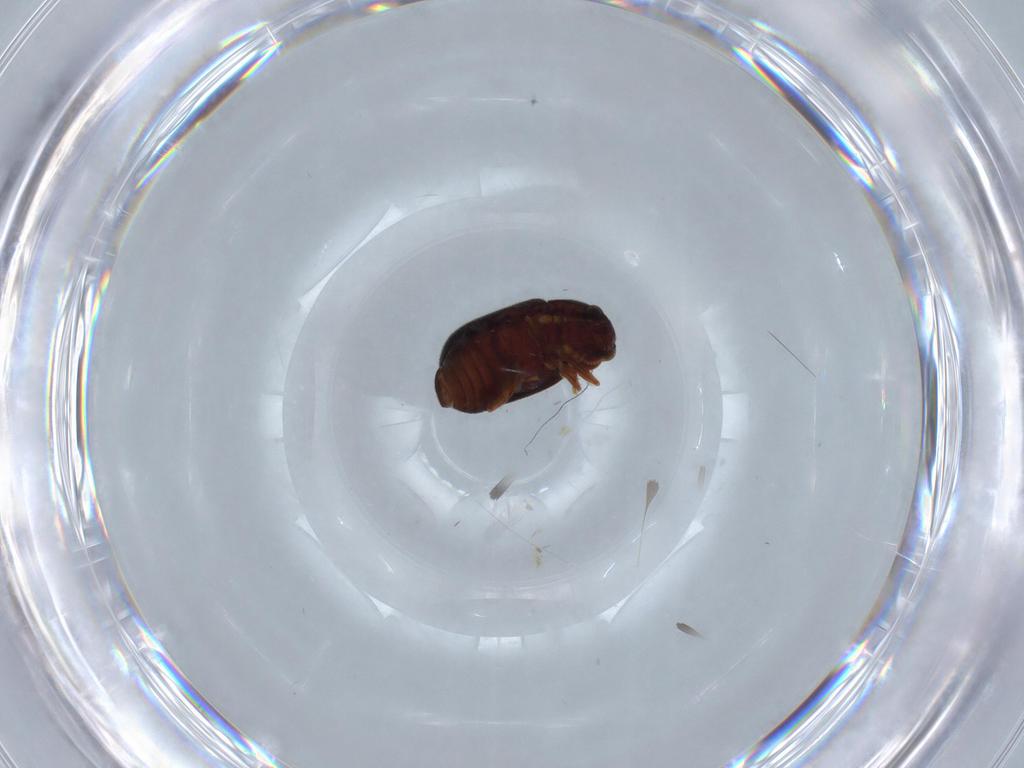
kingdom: Animalia
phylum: Arthropoda
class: Insecta
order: Coleoptera
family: Sphindidae
